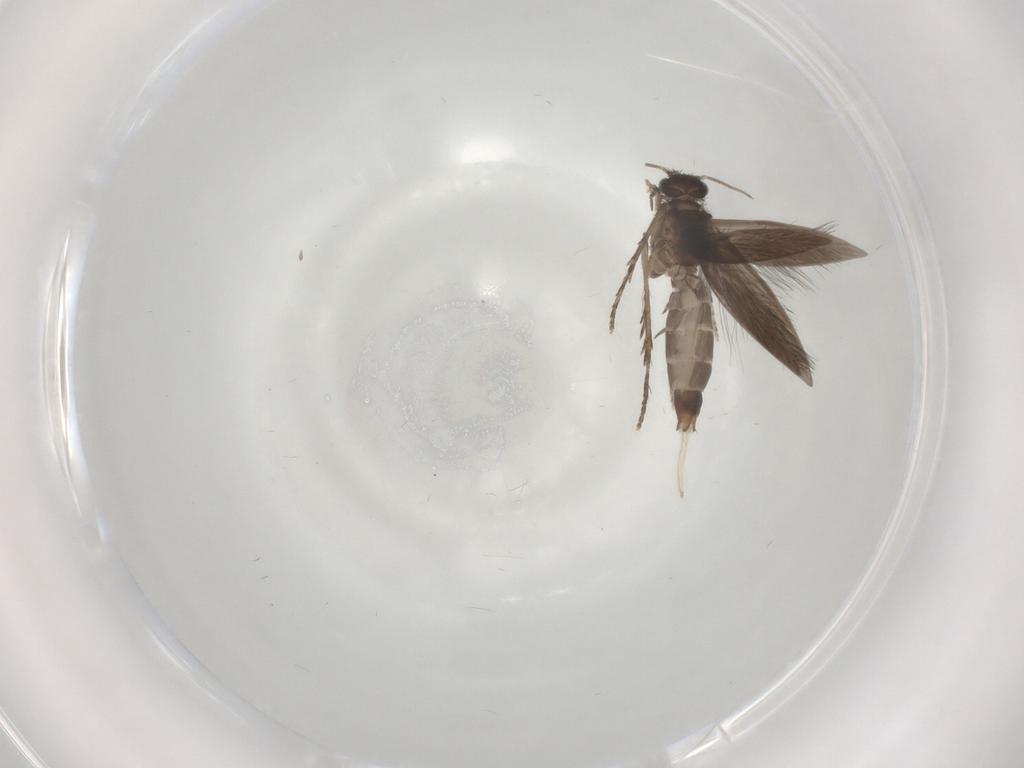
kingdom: Animalia
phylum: Arthropoda
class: Insecta
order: Trichoptera
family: Hydroptilidae
